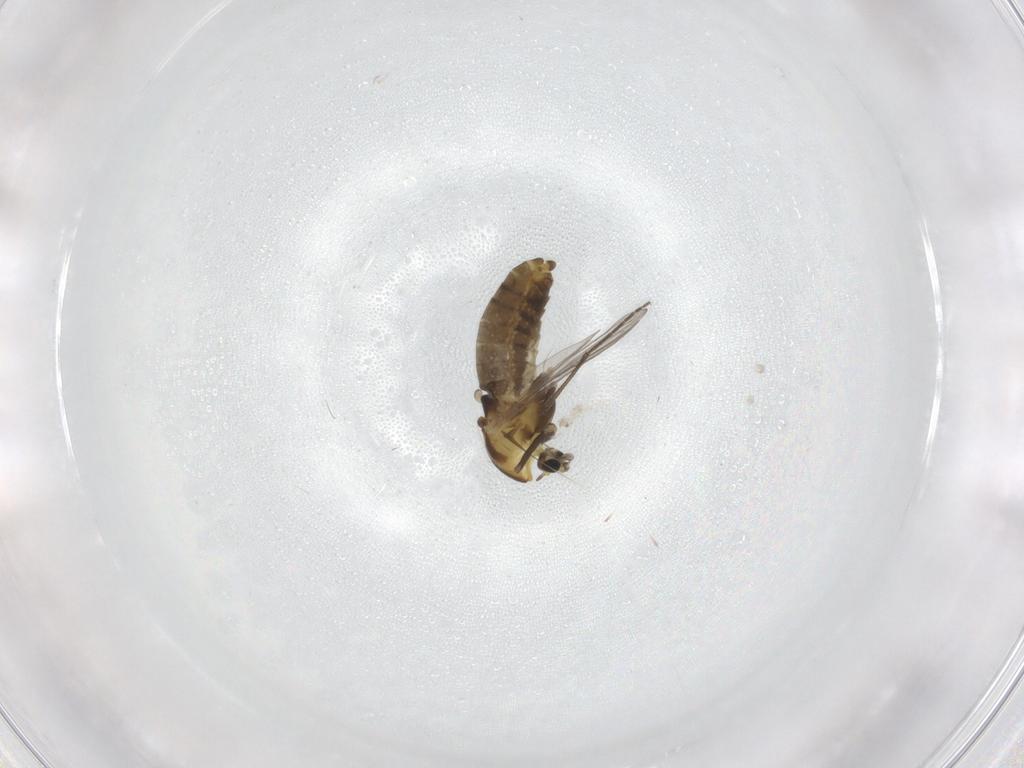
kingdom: Animalia
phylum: Arthropoda
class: Insecta
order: Diptera
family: Chironomidae
